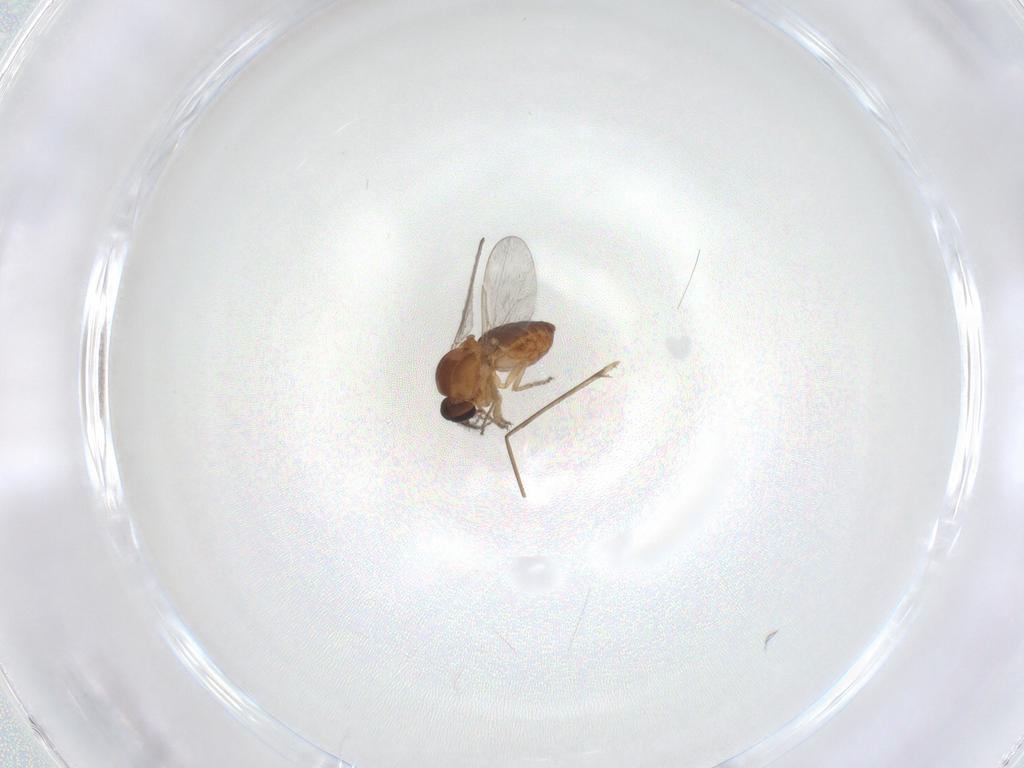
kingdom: Animalia
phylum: Arthropoda
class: Insecta
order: Diptera
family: Ceratopogonidae
